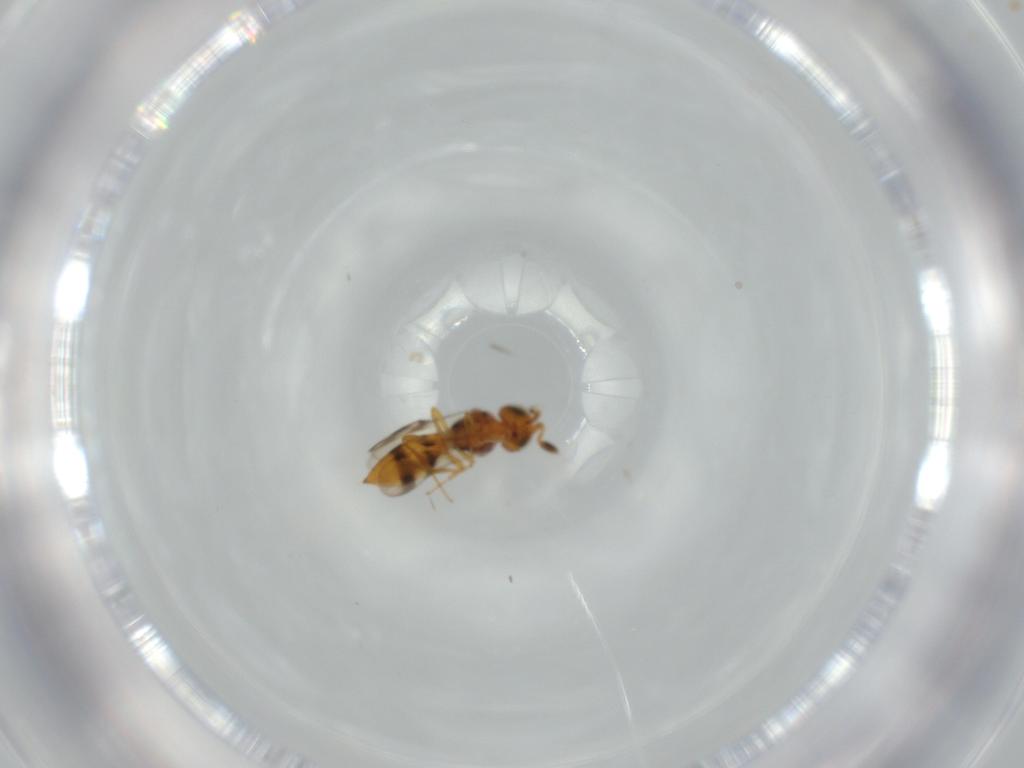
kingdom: Animalia
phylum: Arthropoda
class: Insecta
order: Hymenoptera
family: Scelionidae
